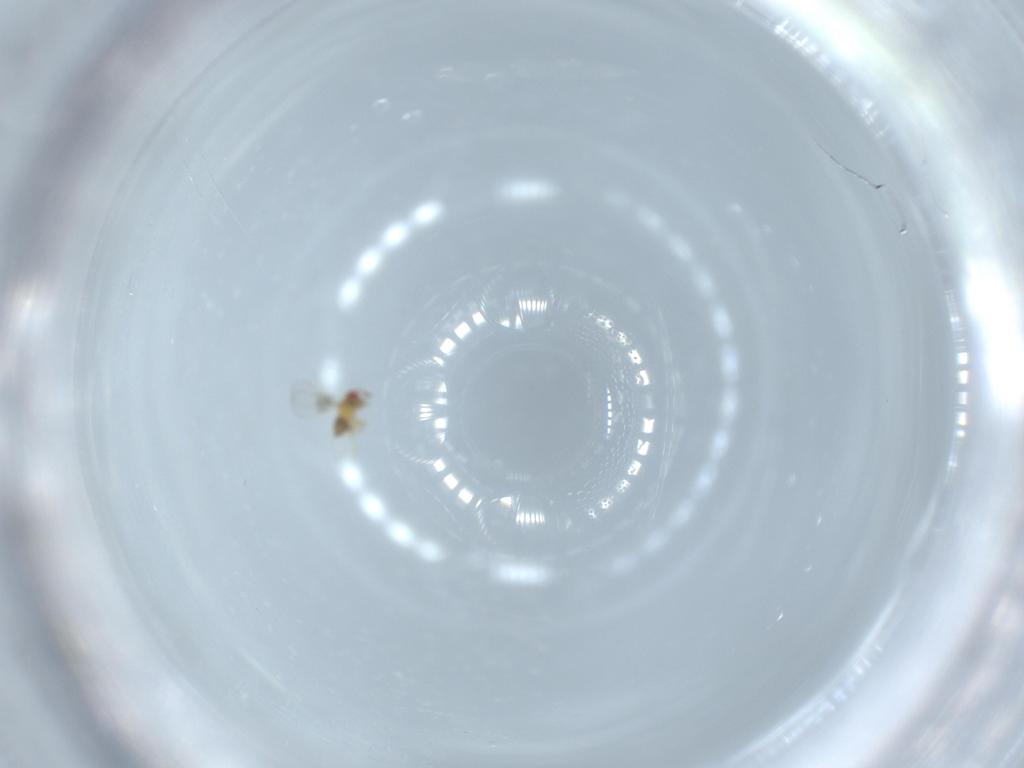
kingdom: Animalia
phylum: Arthropoda
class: Insecta
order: Hymenoptera
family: Trichogrammatidae
